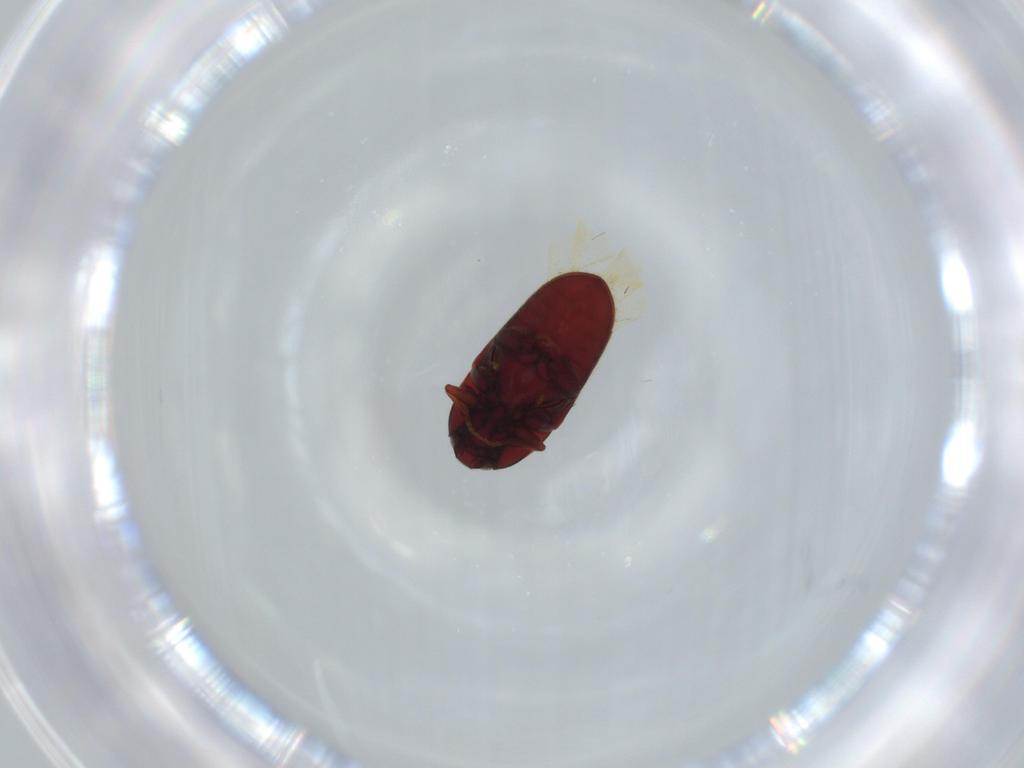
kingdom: Animalia
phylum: Arthropoda
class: Insecta
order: Coleoptera
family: Throscidae
